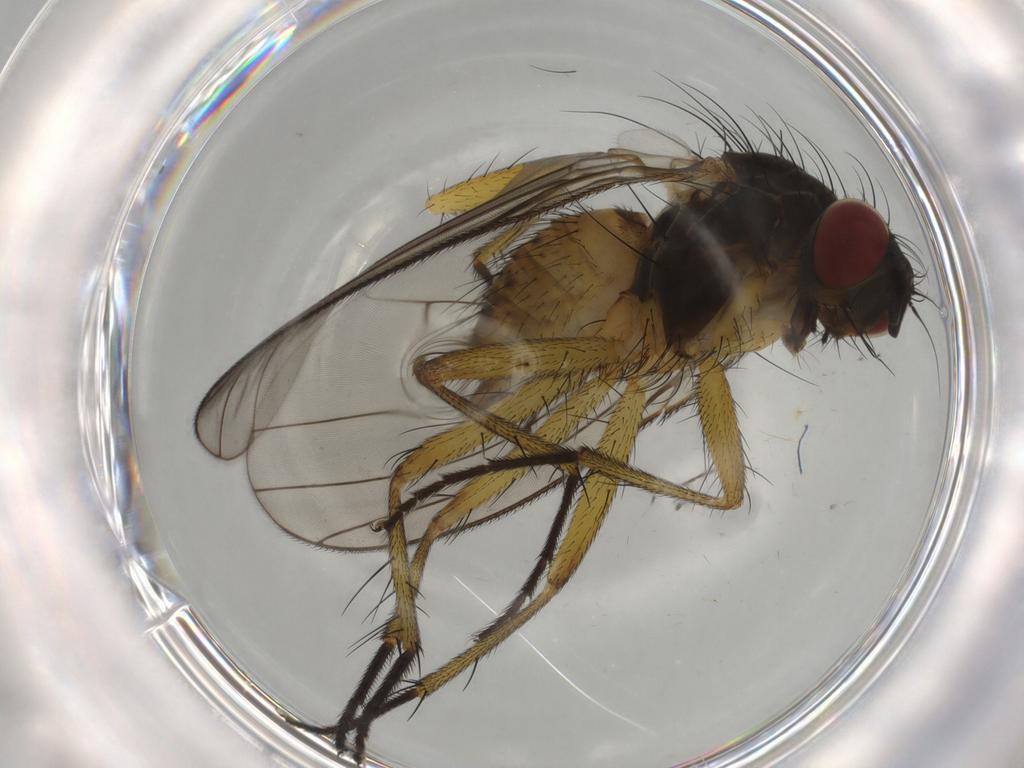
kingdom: Animalia
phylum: Arthropoda
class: Insecta
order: Diptera
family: Muscidae
